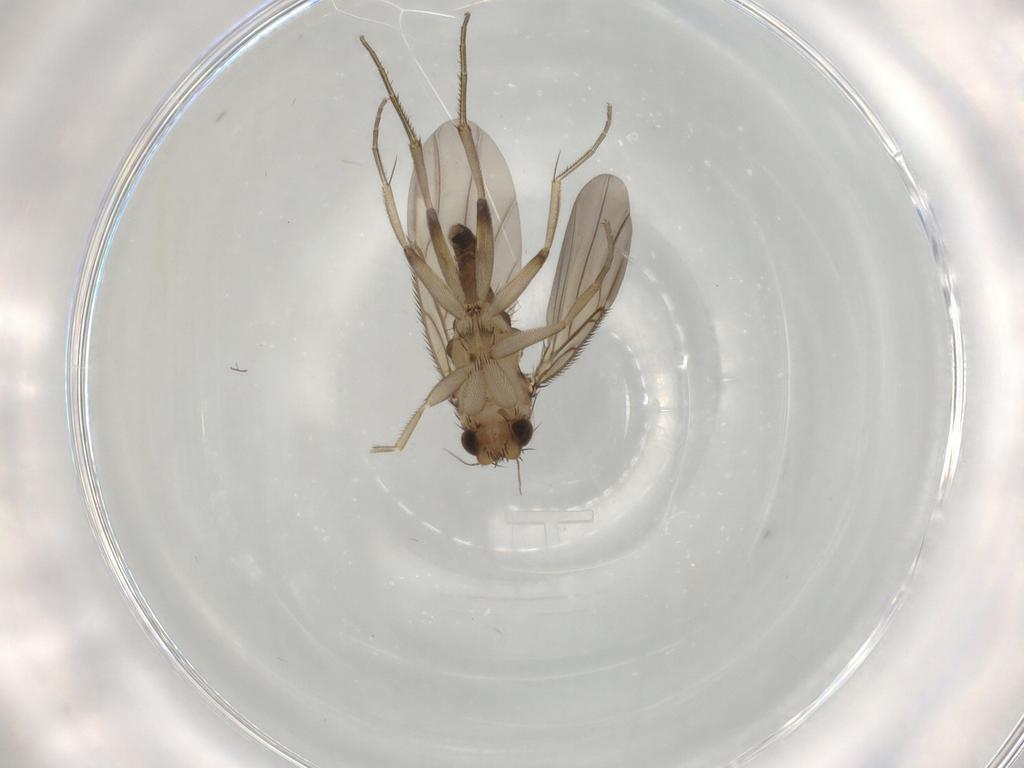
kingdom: Animalia
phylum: Arthropoda
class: Insecta
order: Diptera
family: Phoridae
